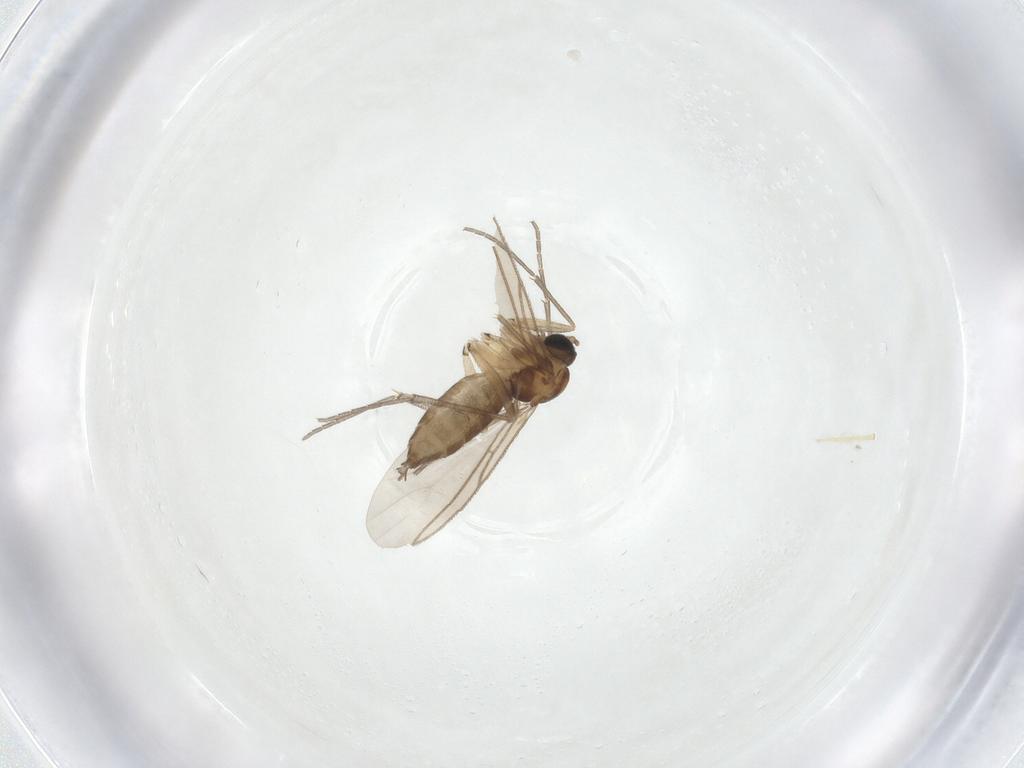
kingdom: Animalia
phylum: Arthropoda
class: Insecta
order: Diptera
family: Sciaridae
